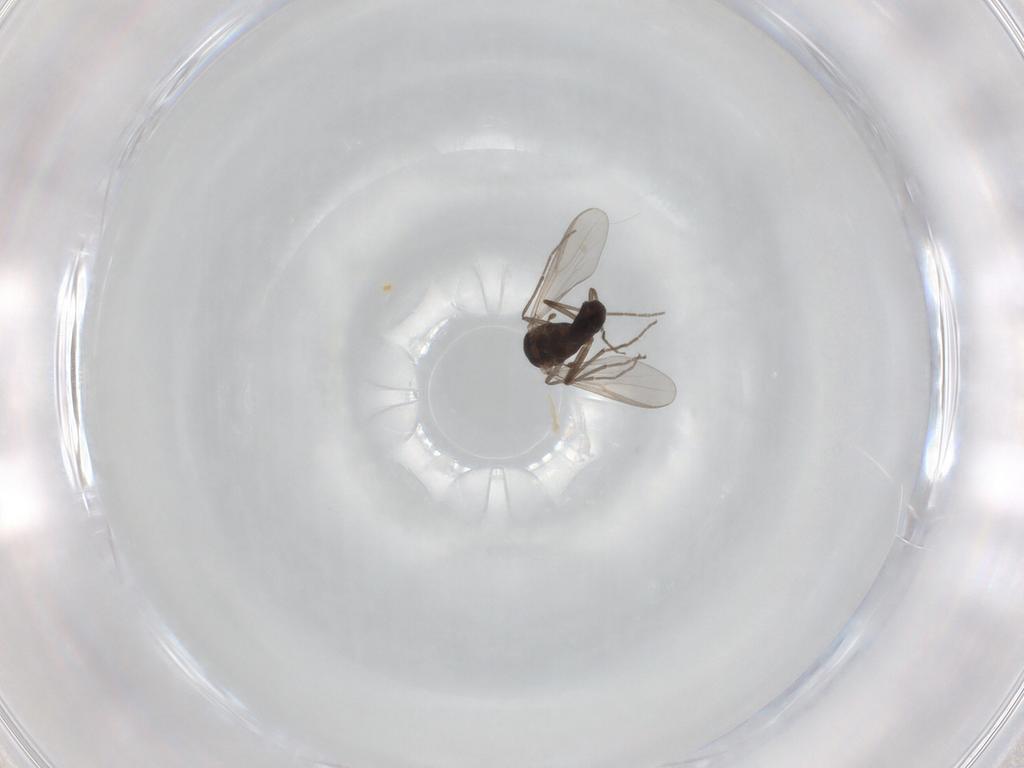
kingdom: Animalia
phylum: Arthropoda
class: Insecta
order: Diptera
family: Chironomidae
